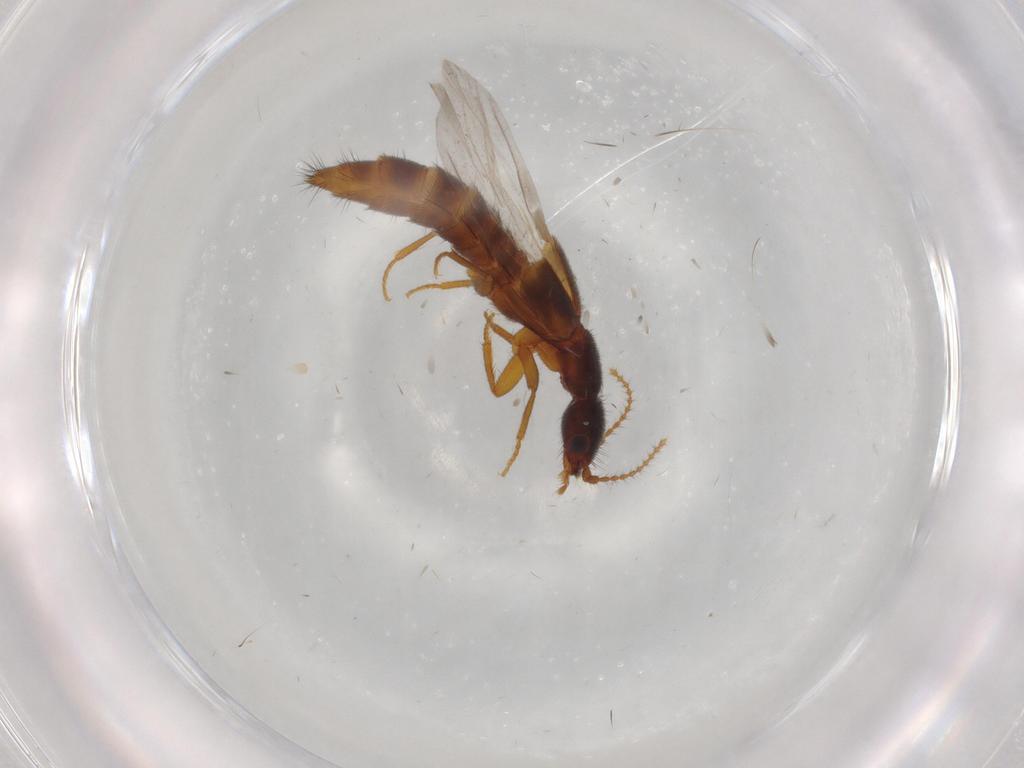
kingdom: Animalia
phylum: Arthropoda
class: Insecta
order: Coleoptera
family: Staphylinidae
